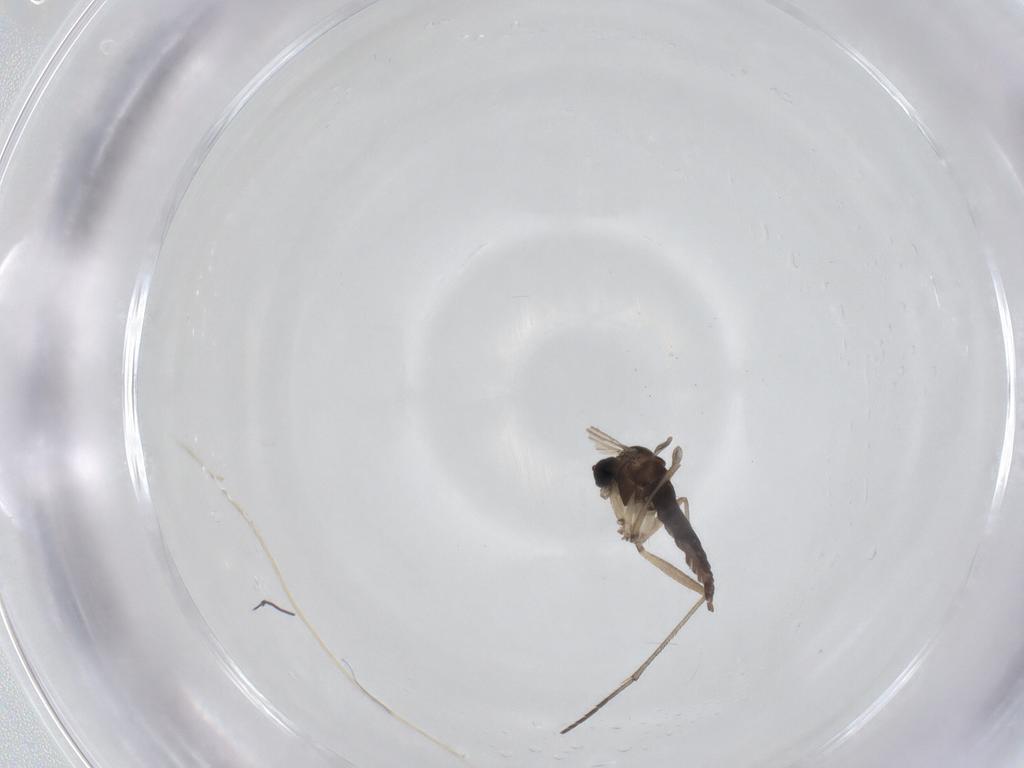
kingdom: Animalia
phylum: Arthropoda
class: Insecta
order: Diptera
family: Sciaridae
